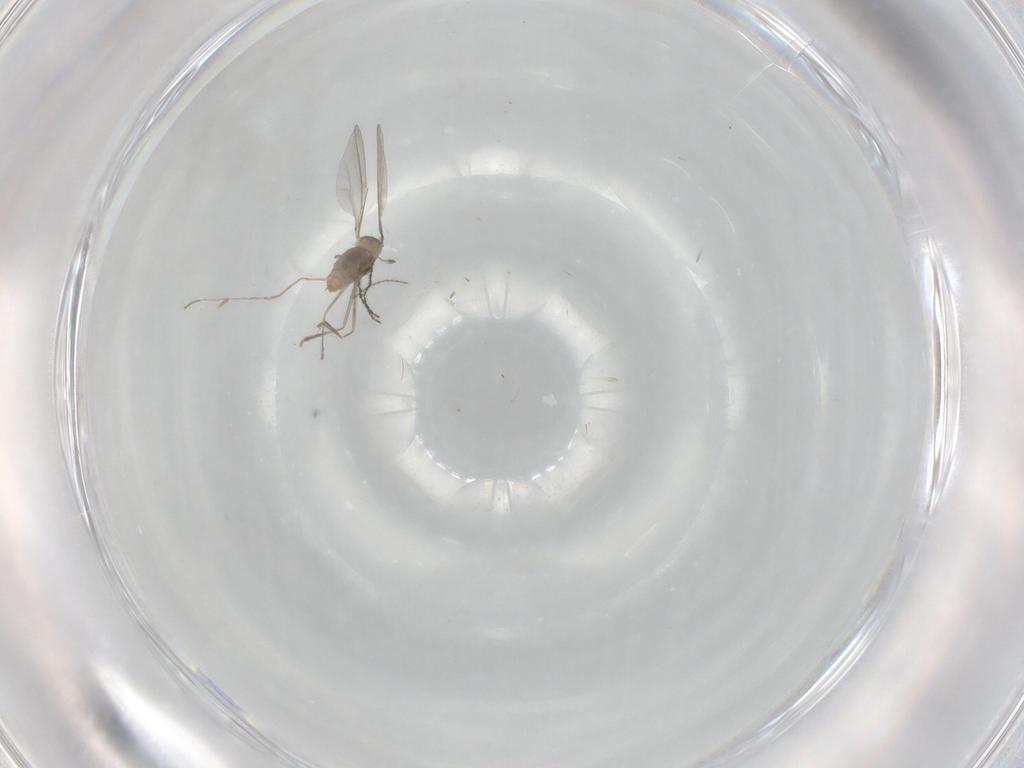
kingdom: Animalia
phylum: Arthropoda
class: Insecta
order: Diptera
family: Cecidomyiidae
